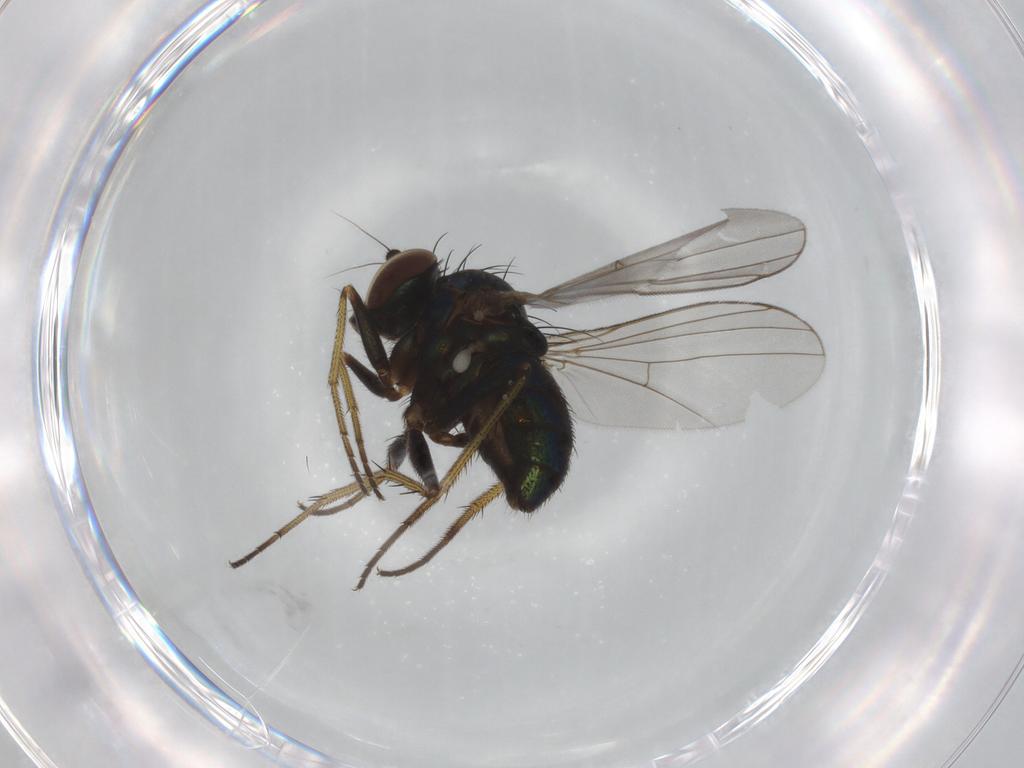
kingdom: Animalia
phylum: Arthropoda
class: Insecta
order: Diptera
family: Dolichopodidae
